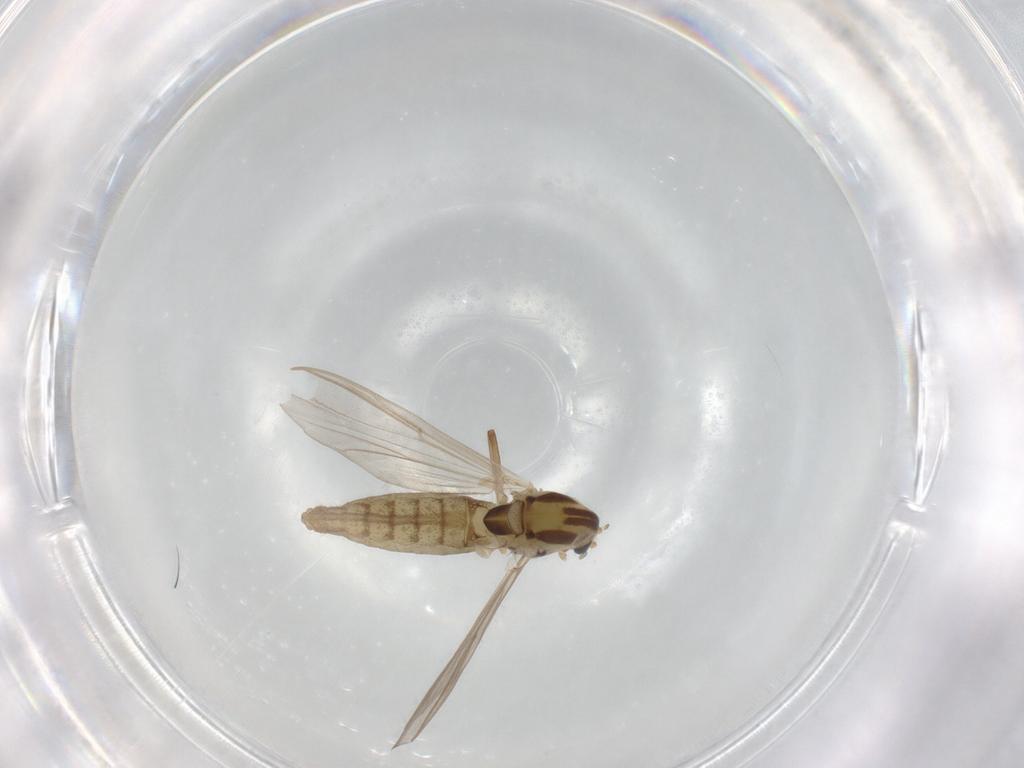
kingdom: Animalia
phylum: Arthropoda
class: Insecta
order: Diptera
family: Chironomidae
